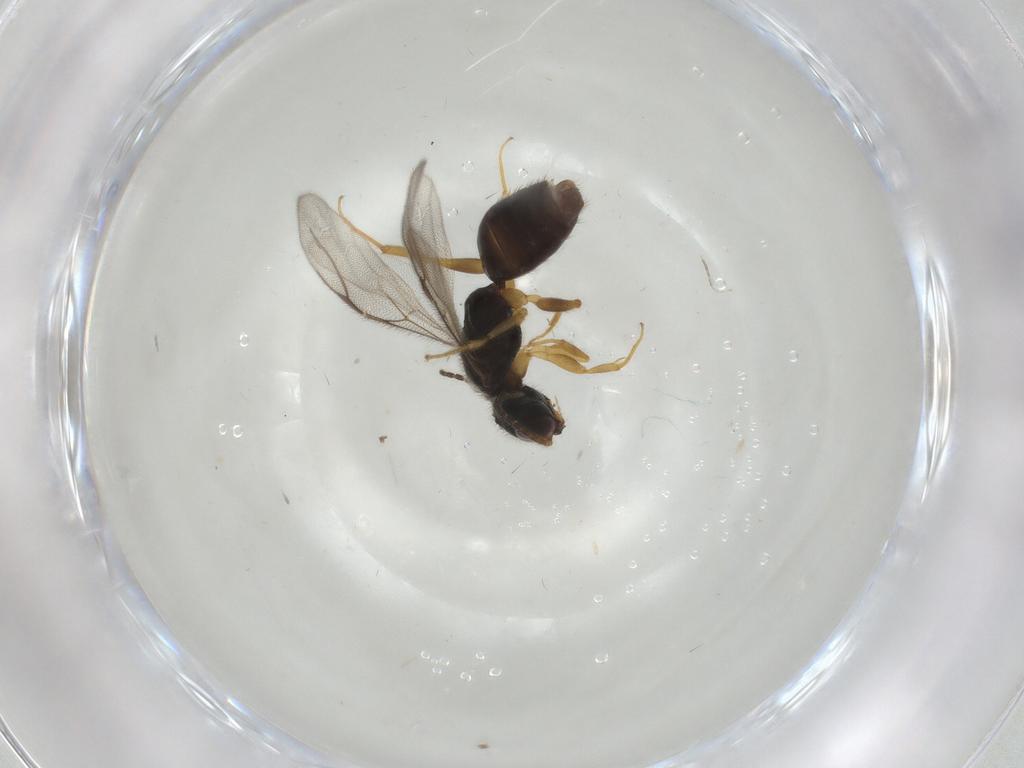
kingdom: Animalia
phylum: Arthropoda
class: Insecta
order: Hymenoptera
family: Bethylidae
